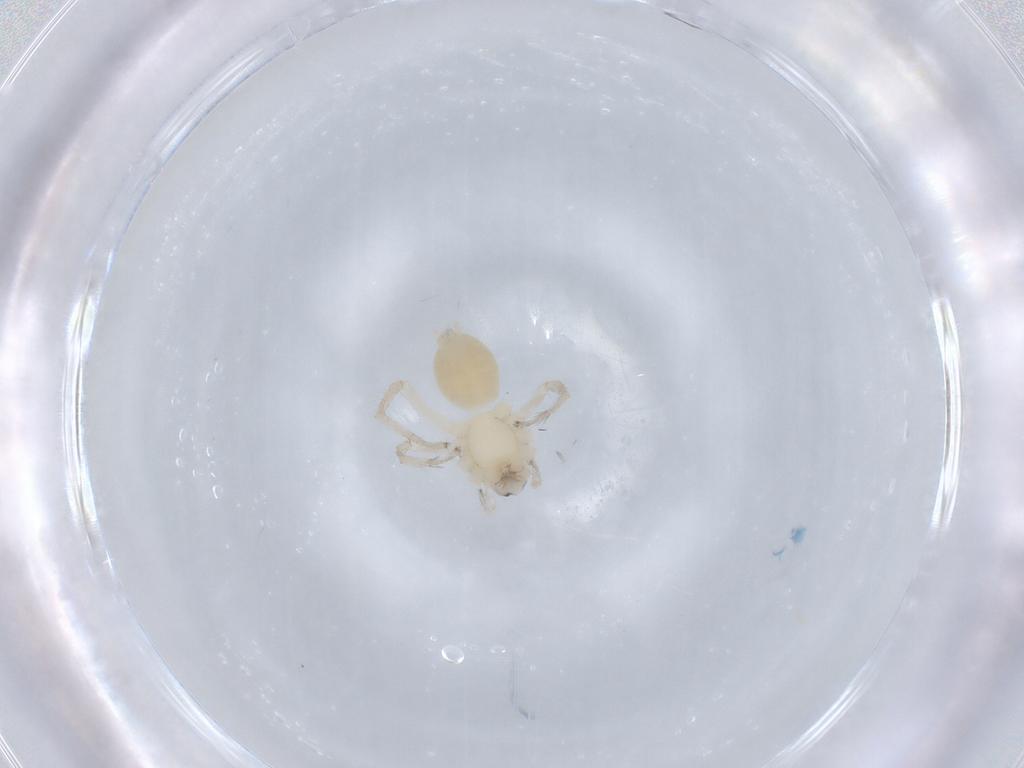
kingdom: Animalia
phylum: Arthropoda
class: Arachnida
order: Araneae
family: Anyphaenidae
